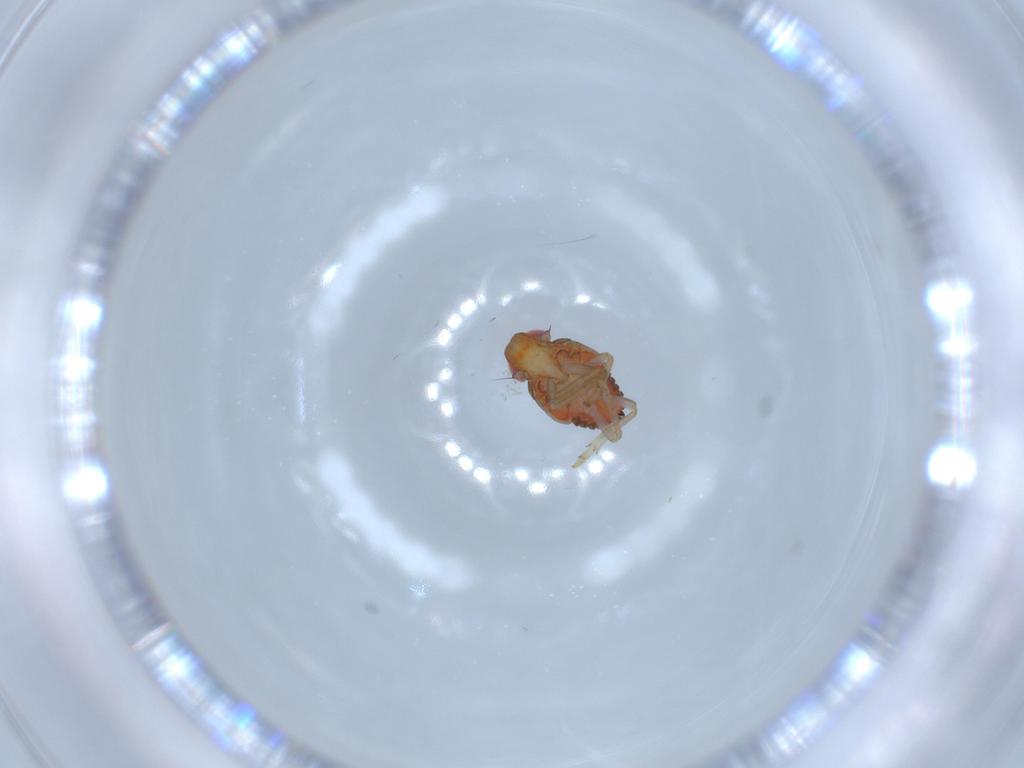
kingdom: Animalia
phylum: Arthropoda
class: Insecta
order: Hemiptera
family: Issidae
